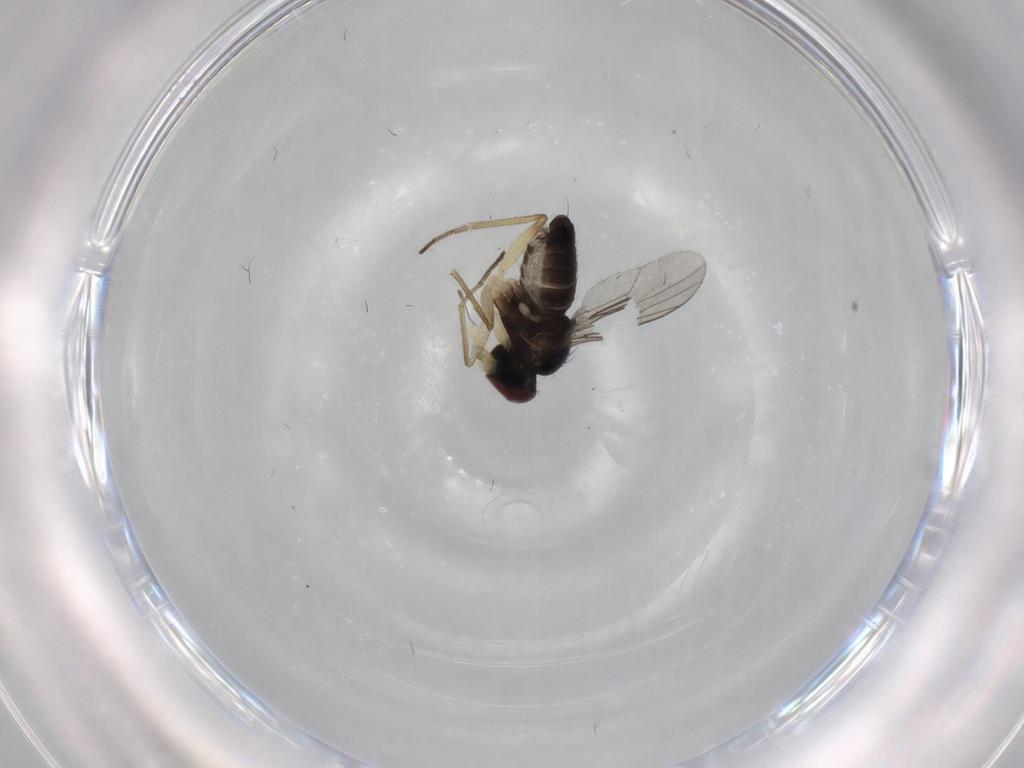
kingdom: Animalia
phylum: Arthropoda
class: Insecta
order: Diptera
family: Dolichopodidae
